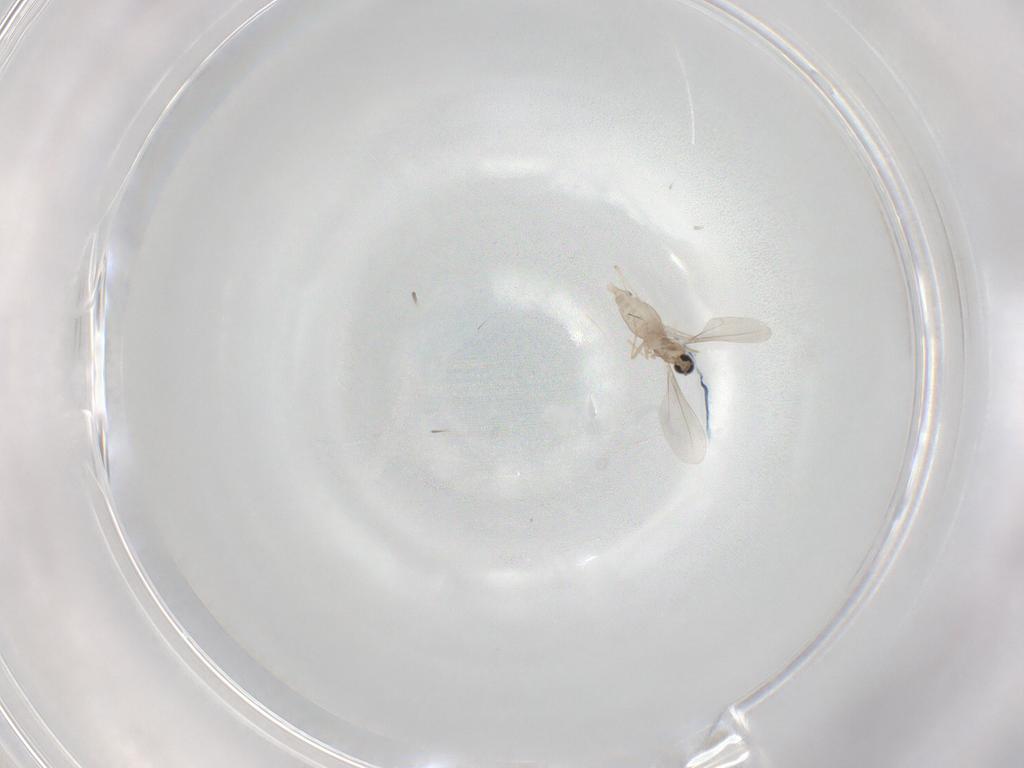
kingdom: Animalia
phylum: Arthropoda
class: Insecta
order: Diptera
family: Cecidomyiidae
